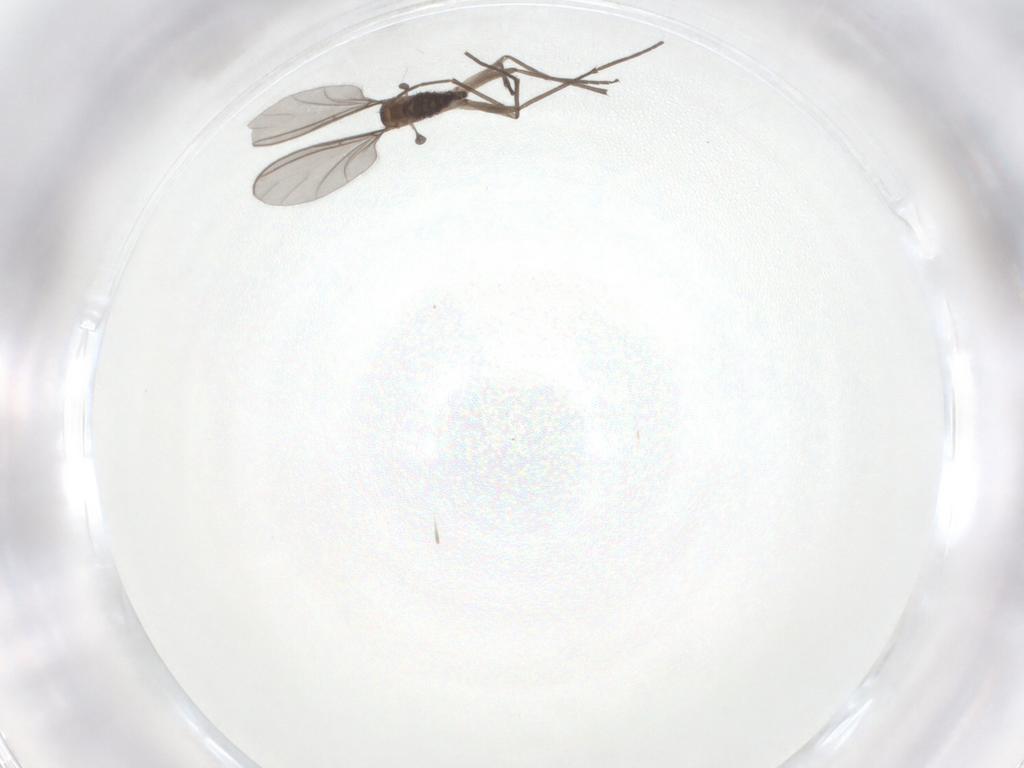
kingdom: Animalia
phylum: Arthropoda
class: Insecta
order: Diptera
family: Sciaridae
